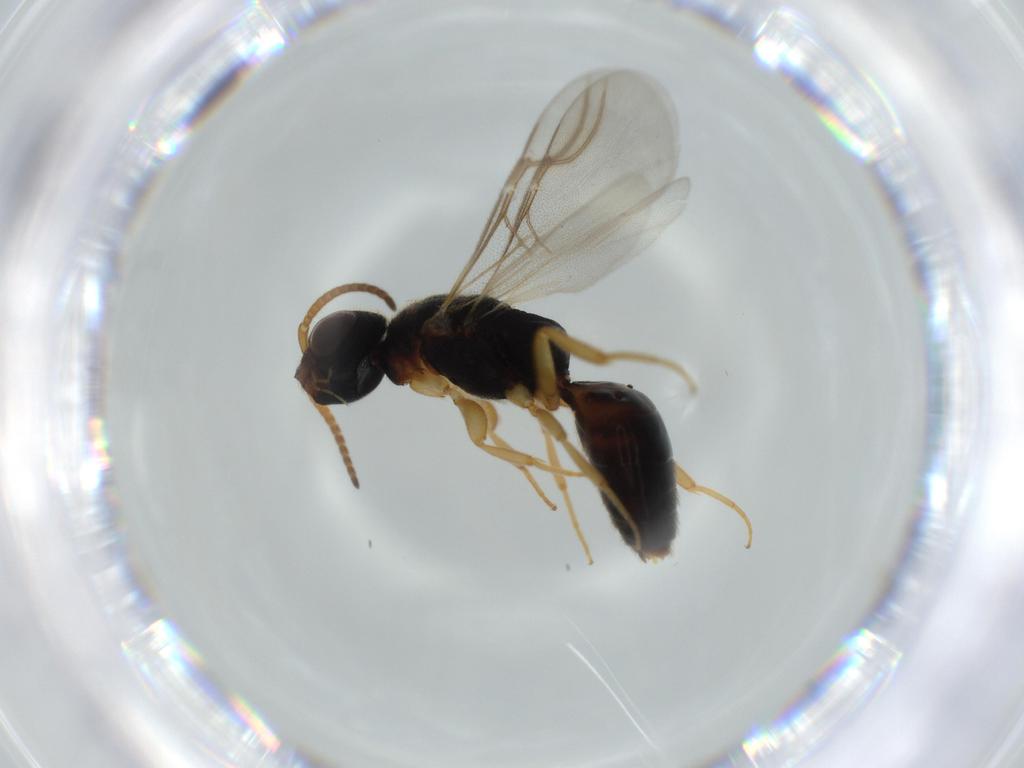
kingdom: Animalia
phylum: Arthropoda
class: Insecta
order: Hymenoptera
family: Bethylidae
